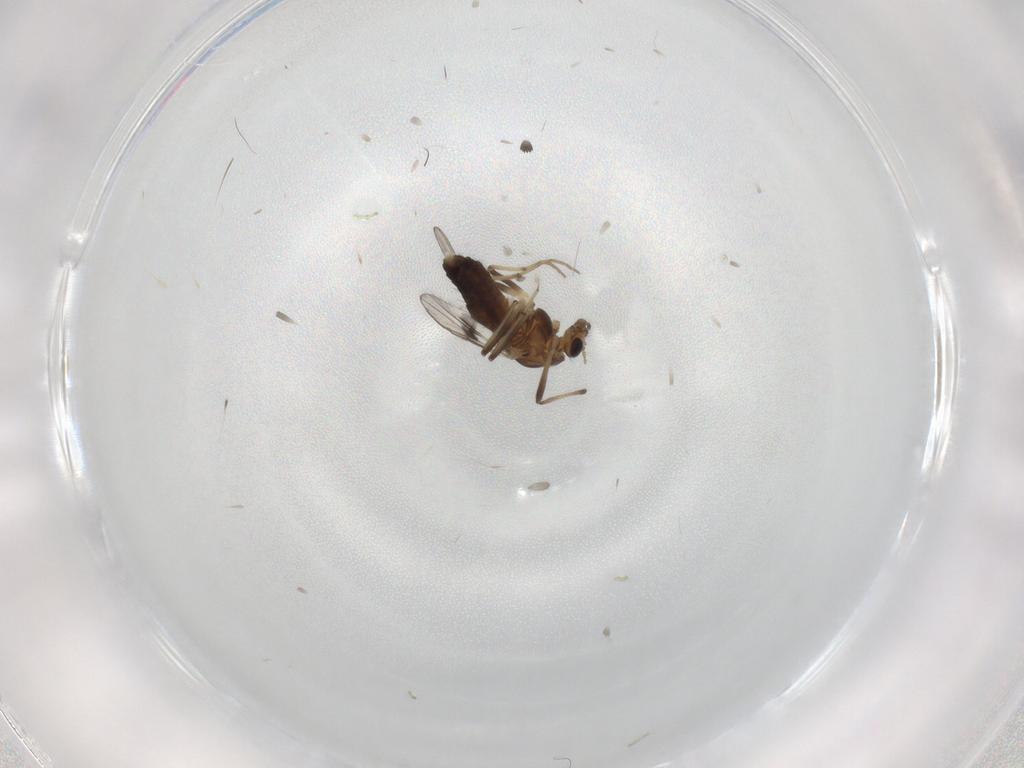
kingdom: Animalia
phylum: Arthropoda
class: Insecta
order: Diptera
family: Chironomidae
